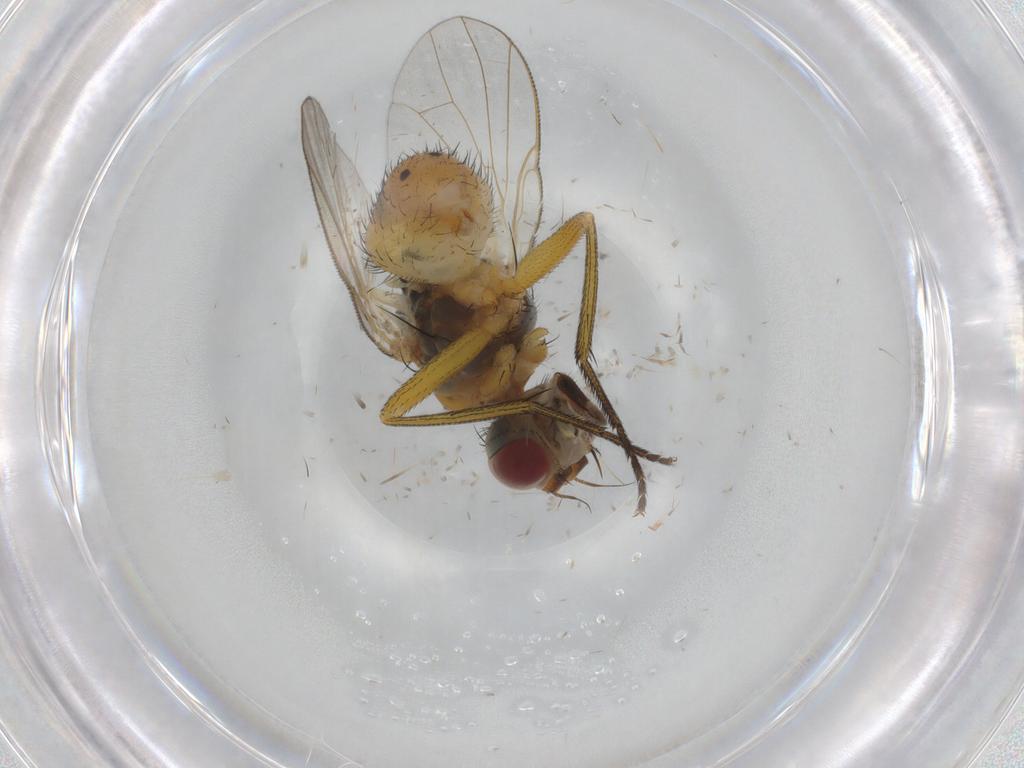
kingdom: Animalia
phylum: Arthropoda
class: Insecta
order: Diptera
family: Muscidae
